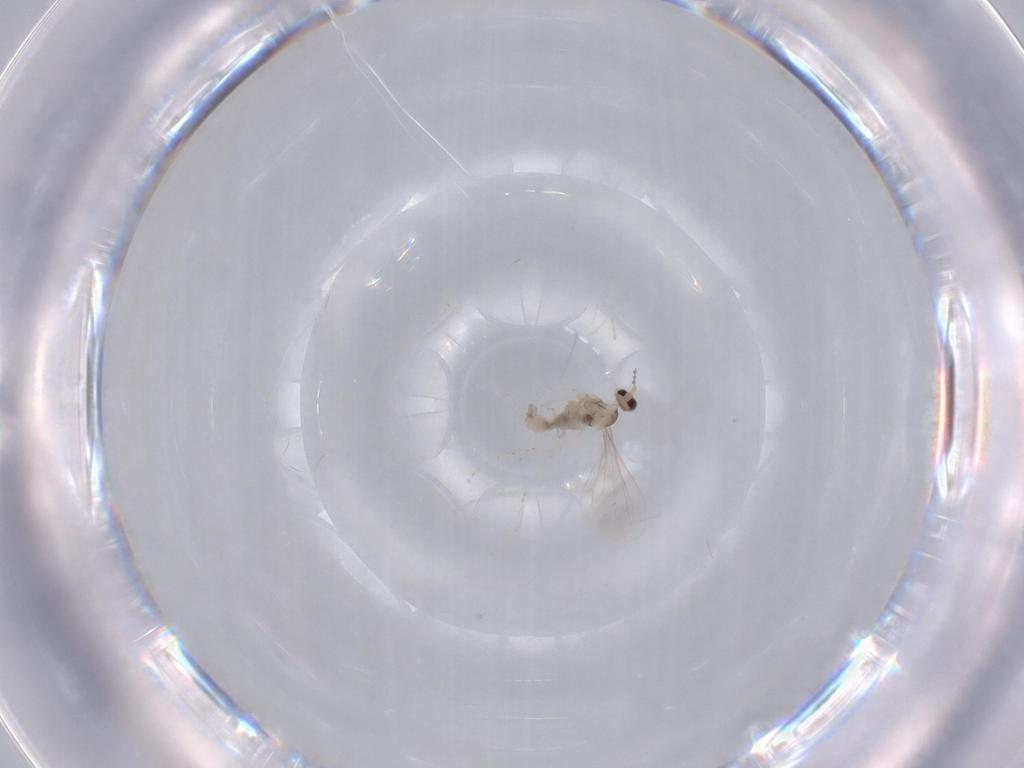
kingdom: Animalia
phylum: Arthropoda
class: Insecta
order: Diptera
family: Cecidomyiidae
